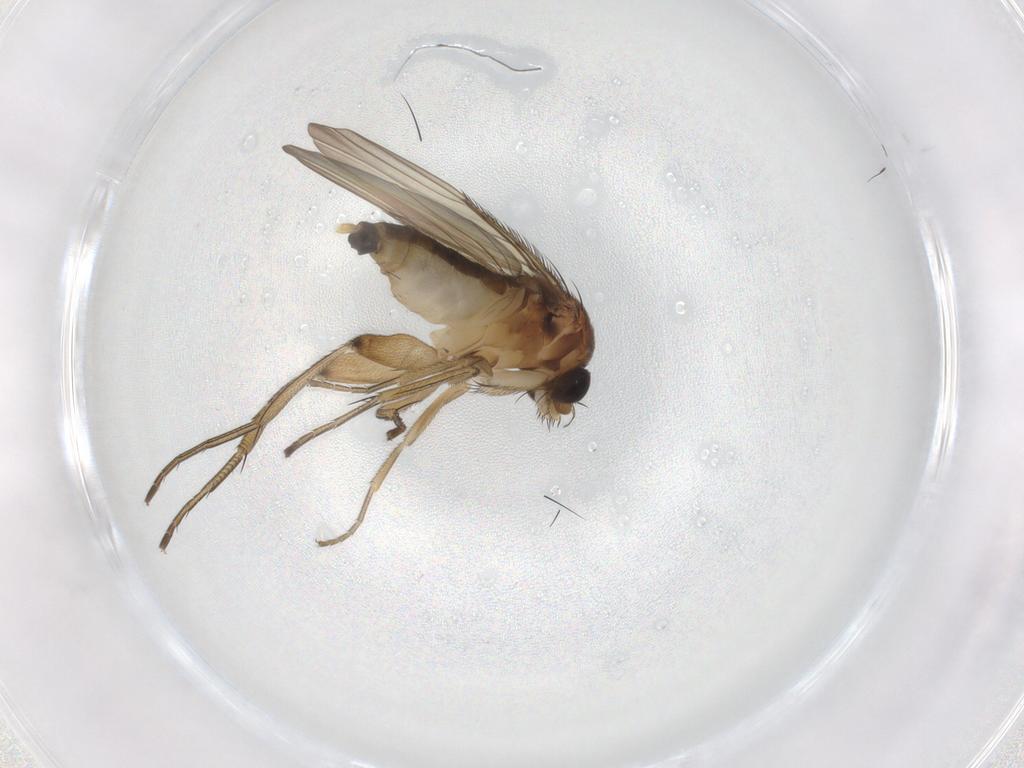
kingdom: Animalia
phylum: Arthropoda
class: Insecta
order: Diptera
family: Phoridae
